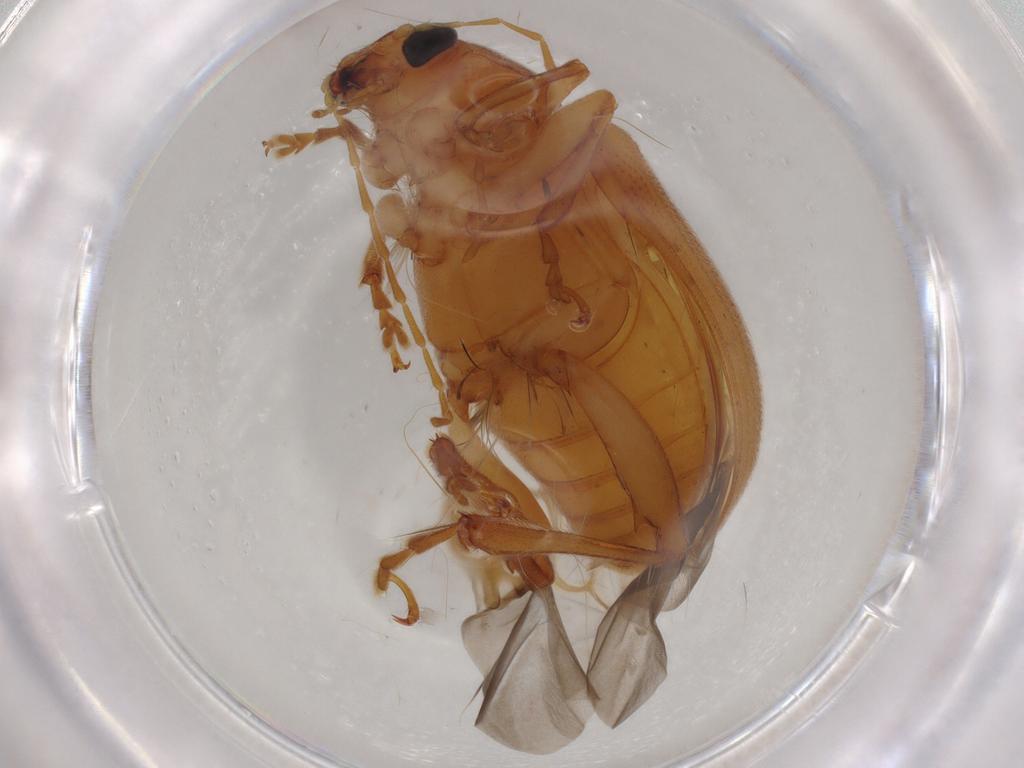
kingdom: Animalia
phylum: Arthropoda
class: Insecta
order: Coleoptera
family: Chrysomelidae
